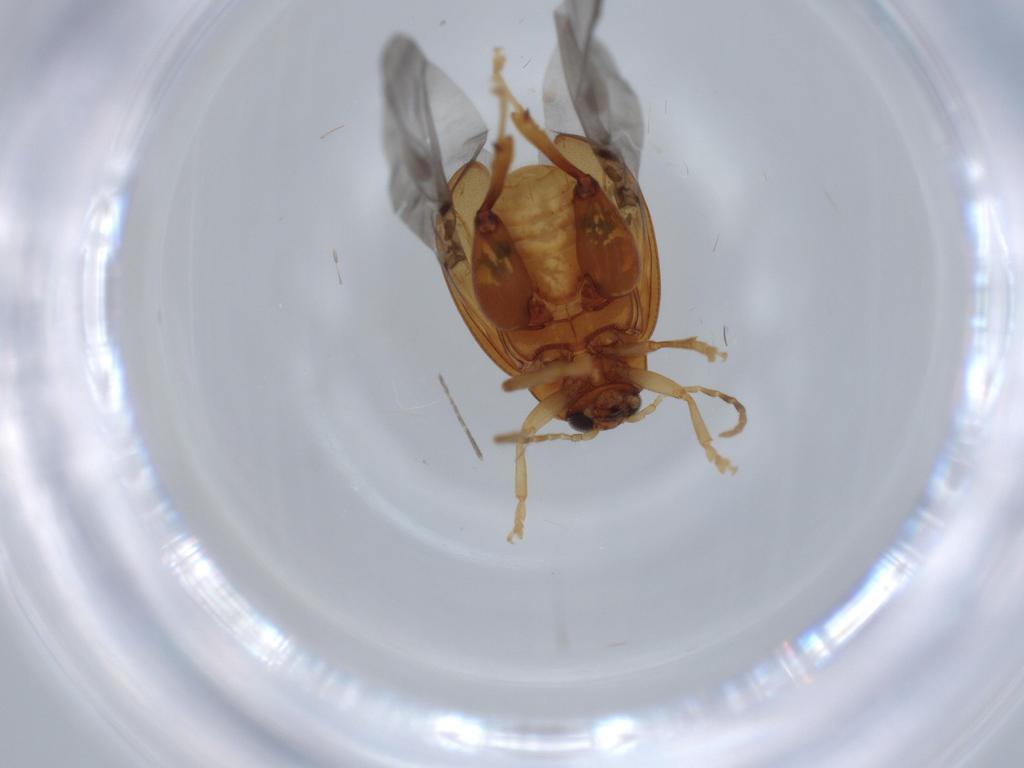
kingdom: Animalia
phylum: Arthropoda
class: Insecta
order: Coleoptera
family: Chrysomelidae
